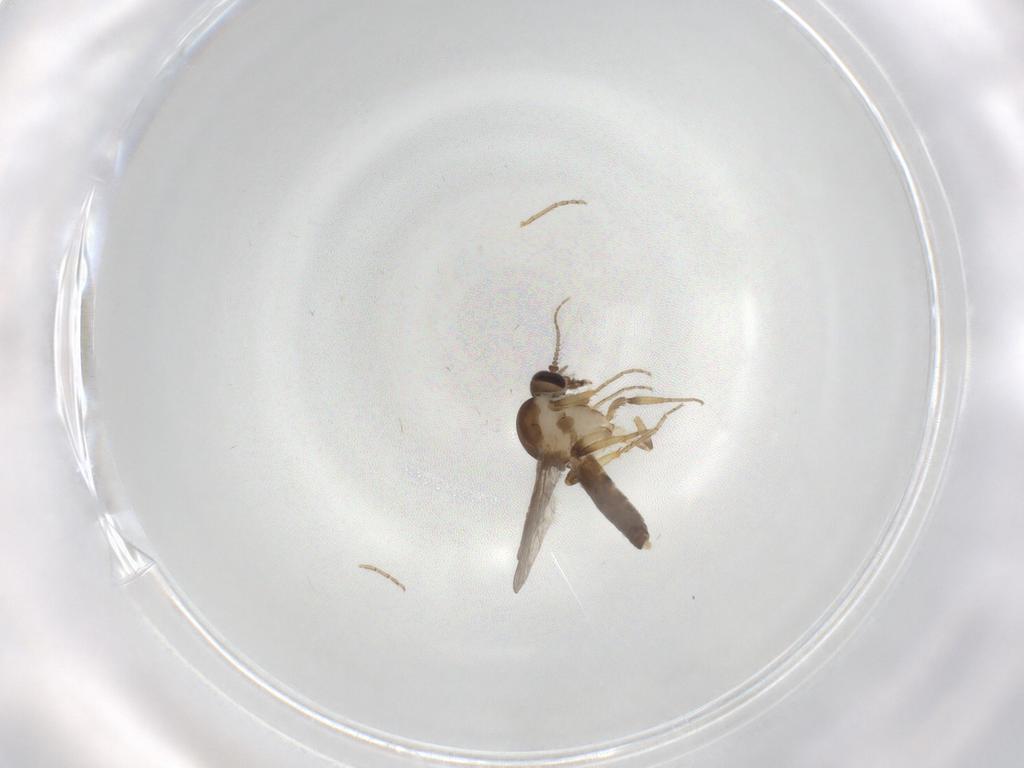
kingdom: Animalia
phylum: Arthropoda
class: Insecta
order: Diptera
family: Ceratopogonidae
